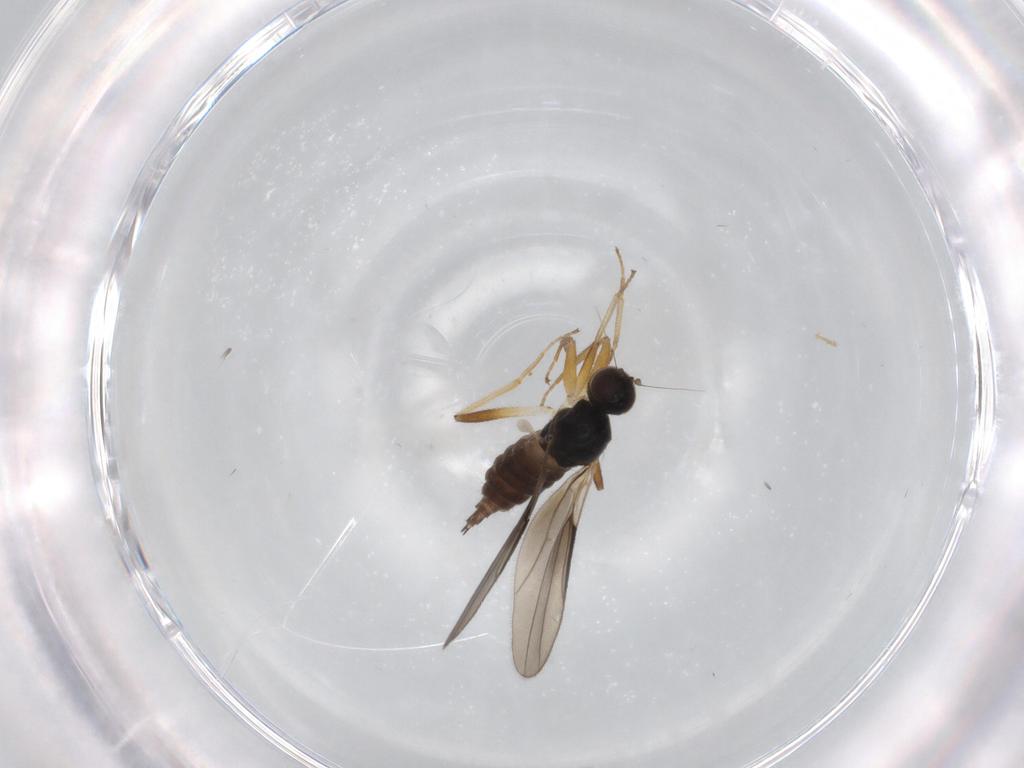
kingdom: Animalia
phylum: Arthropoda
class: Insecta
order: Diptera
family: Hybotidae
